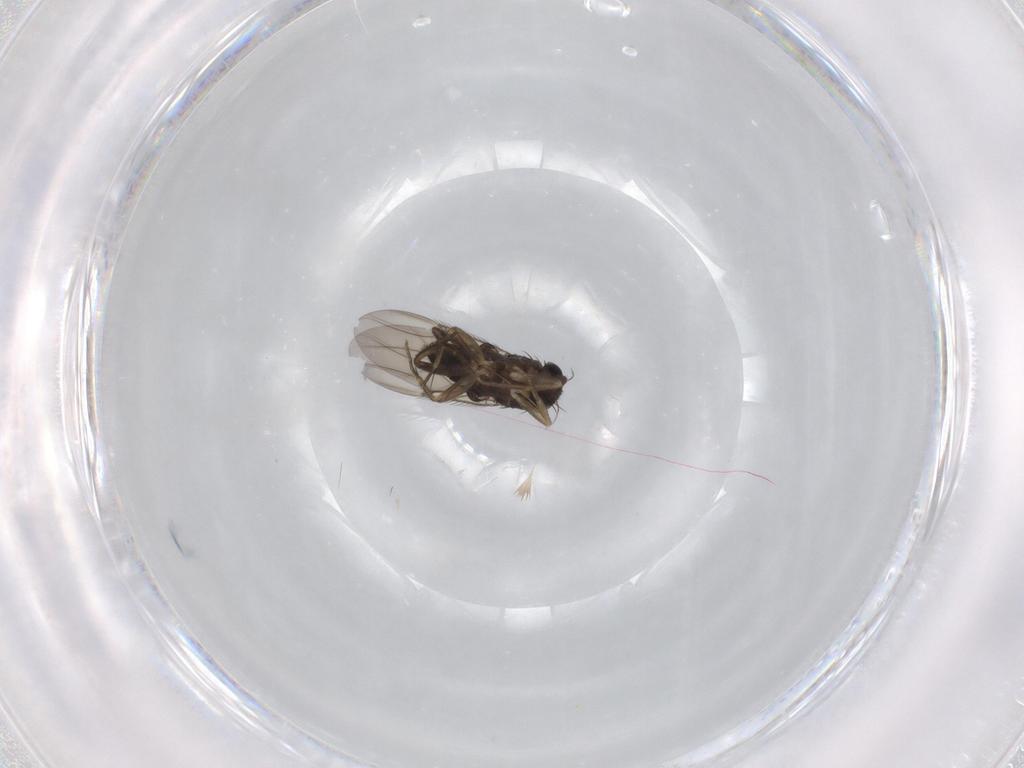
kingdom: Animalia
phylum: Arthropoda
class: Insecta
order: Diptera
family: Phoridae
